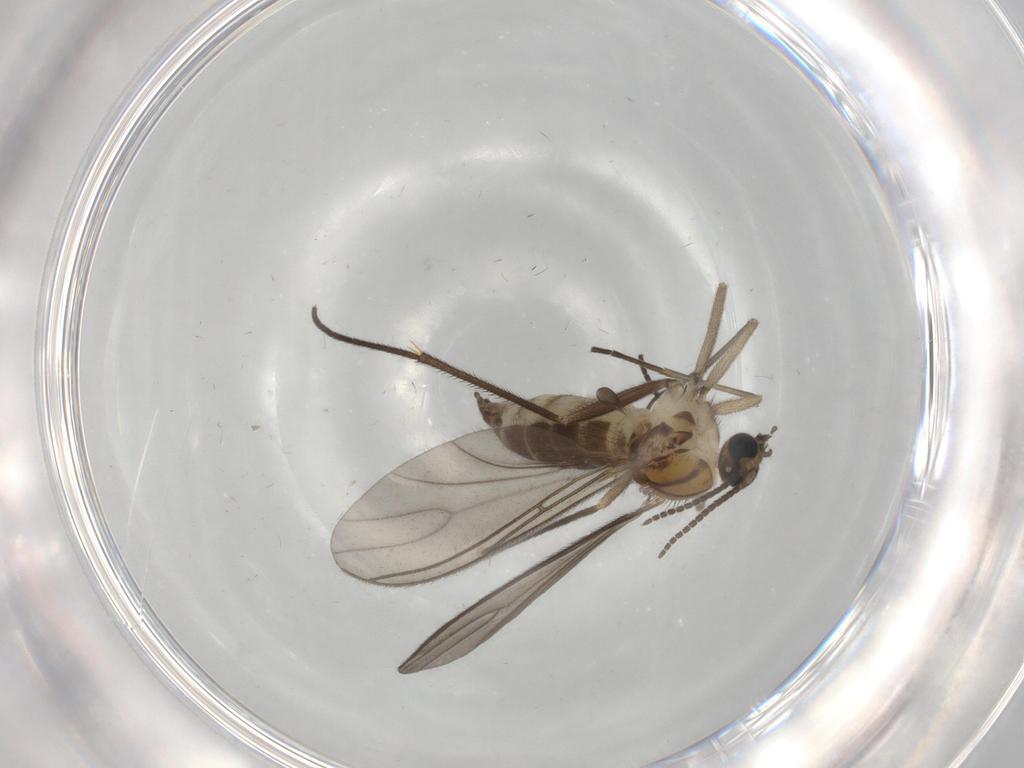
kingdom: Animalia
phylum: Arthropoda
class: Insecta
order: Diptera
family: Sciaridae
